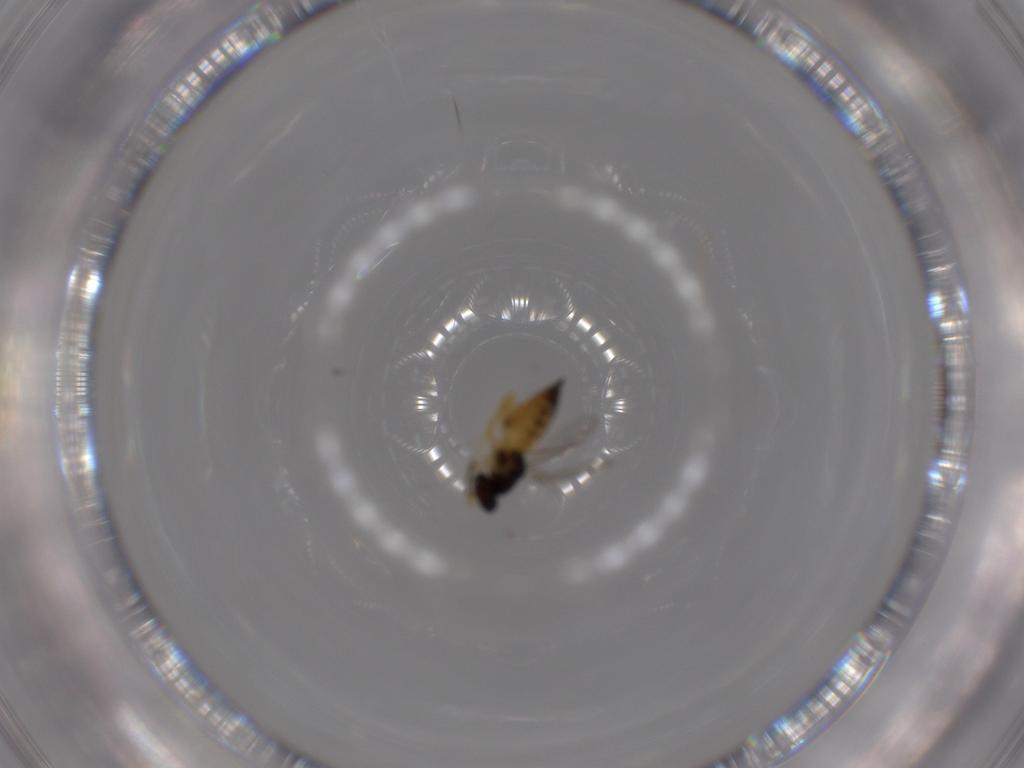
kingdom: Animalia
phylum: Arthropoda
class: Insecta
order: Hymenoptera
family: Eulophidae
